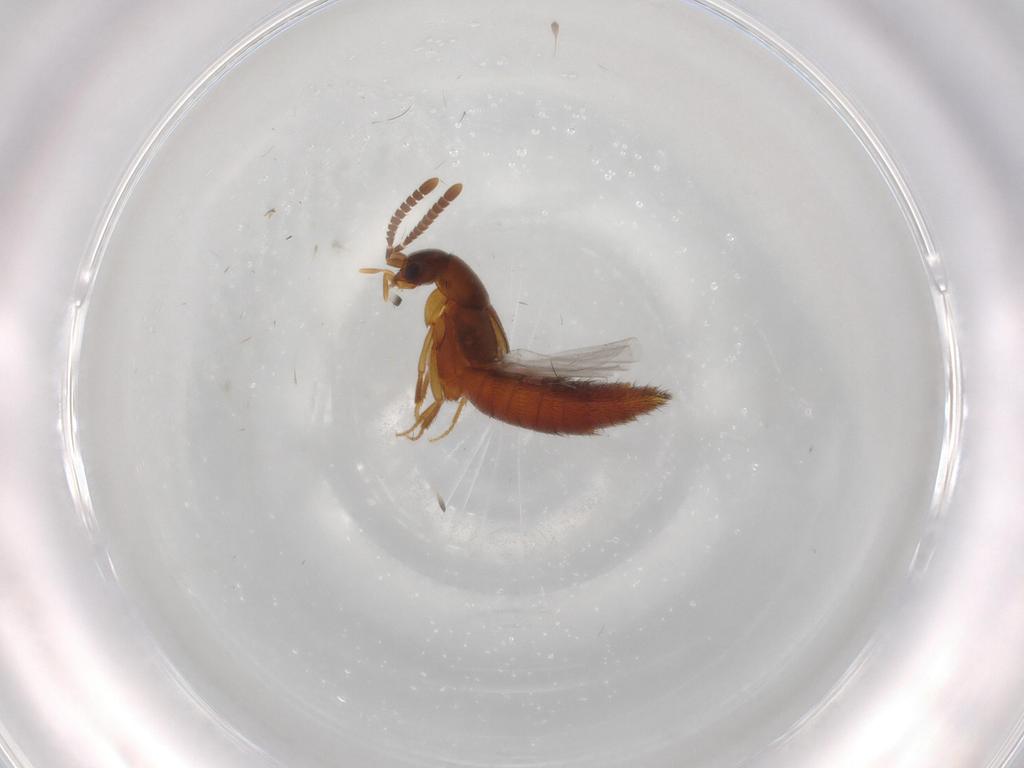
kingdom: Animalia
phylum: Arthropoda
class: Insecta
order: Coleoptera
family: Staphylinidae
